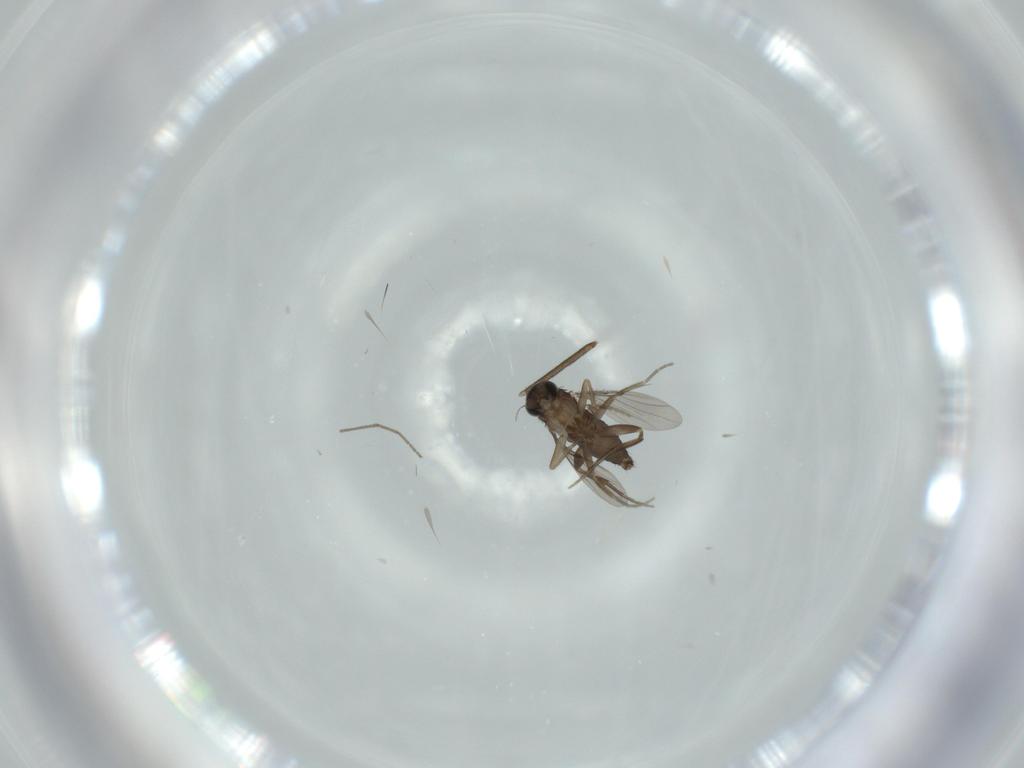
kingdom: Animalia
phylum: Arthropoda
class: Insecta
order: Diptera
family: Phoridae
